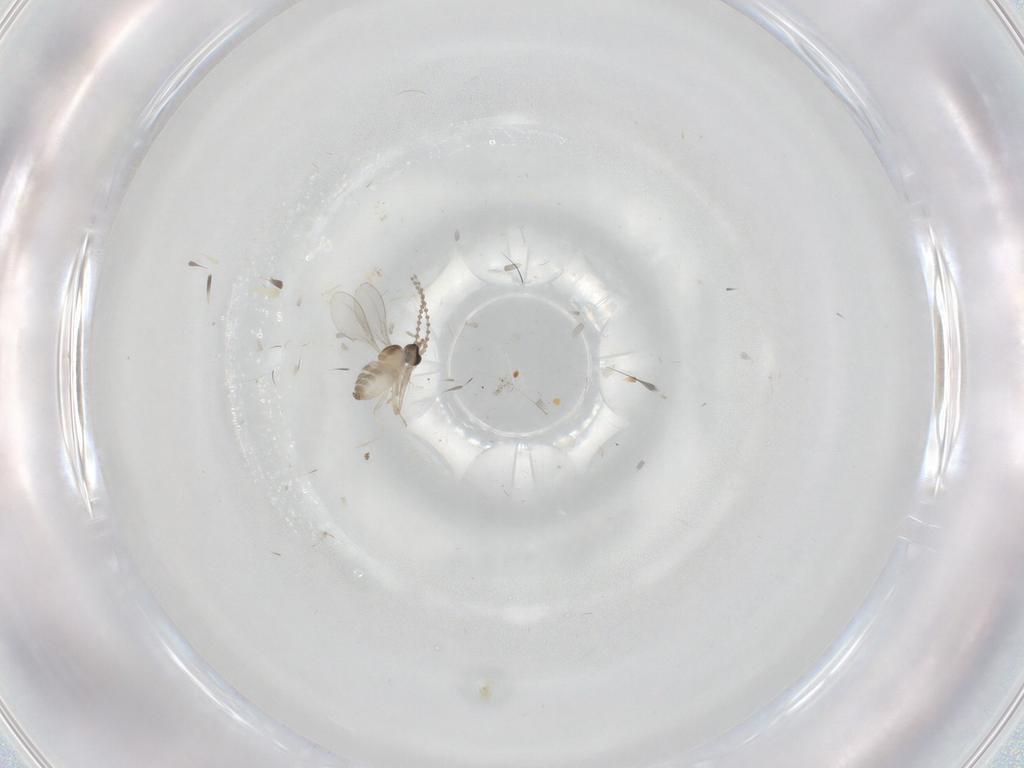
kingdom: Animalia
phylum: Arthropoda
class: Insecta
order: Diptera
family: Cecidomyiidae
